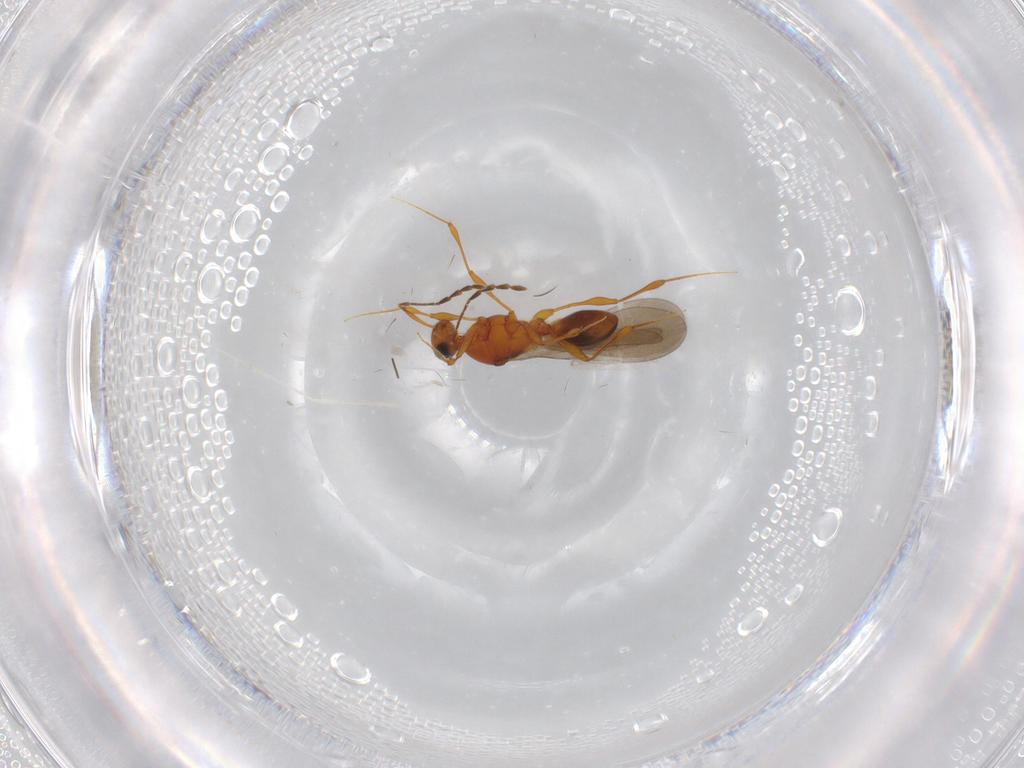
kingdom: Animalia
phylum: Arthropoda
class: Insecta
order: Hymenoptera
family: Platygastridae
